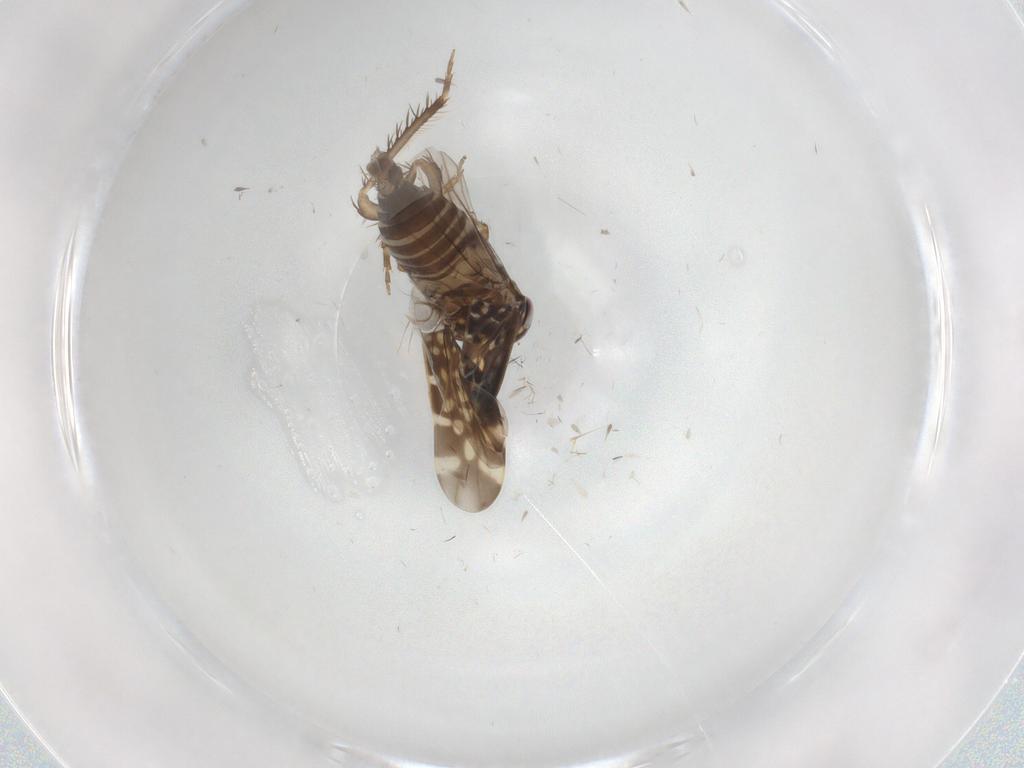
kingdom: Animalia
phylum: Arthropoda
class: Insecta
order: Hemiptera
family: Cicadellidae
